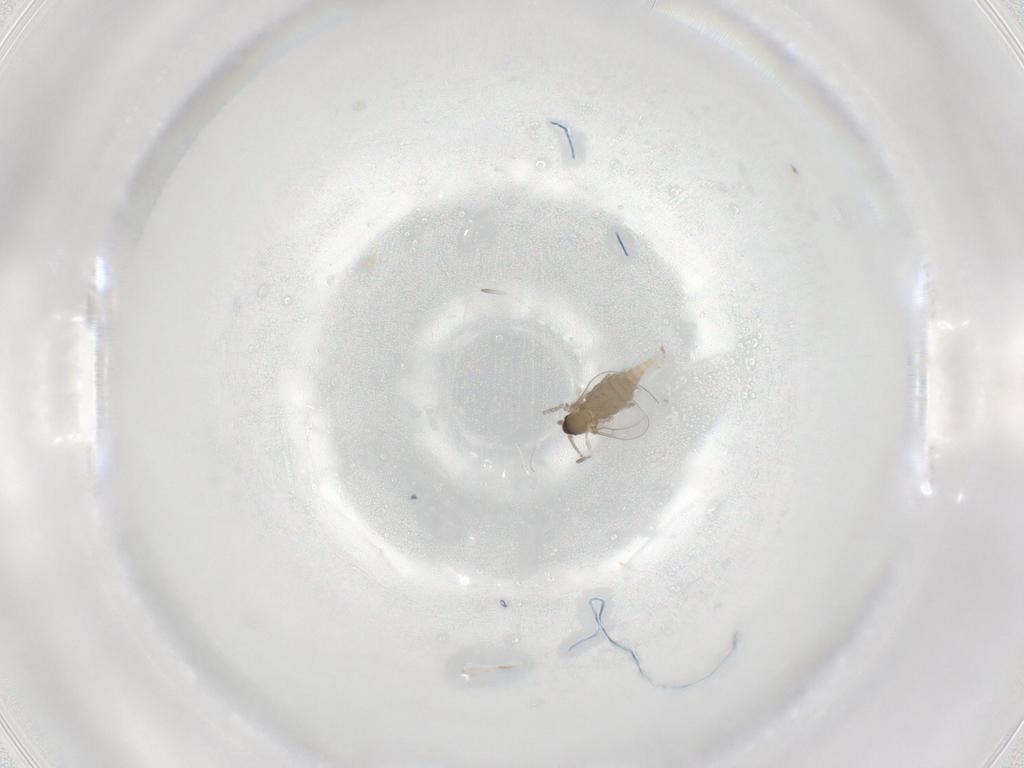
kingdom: Animalia
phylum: Arthropoda
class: Insecta
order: Diptera
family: Cecidomyiidae
